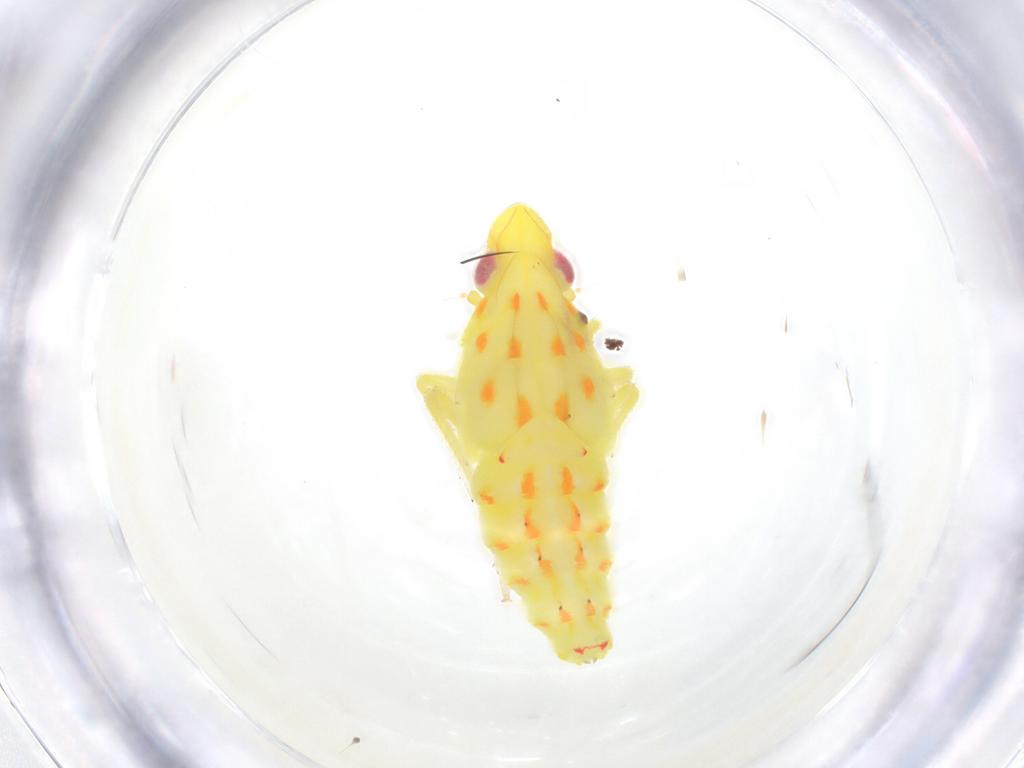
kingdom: Animalia
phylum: Arthropoda
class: Insecta
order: Hemiptera
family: Tropiduchidae
